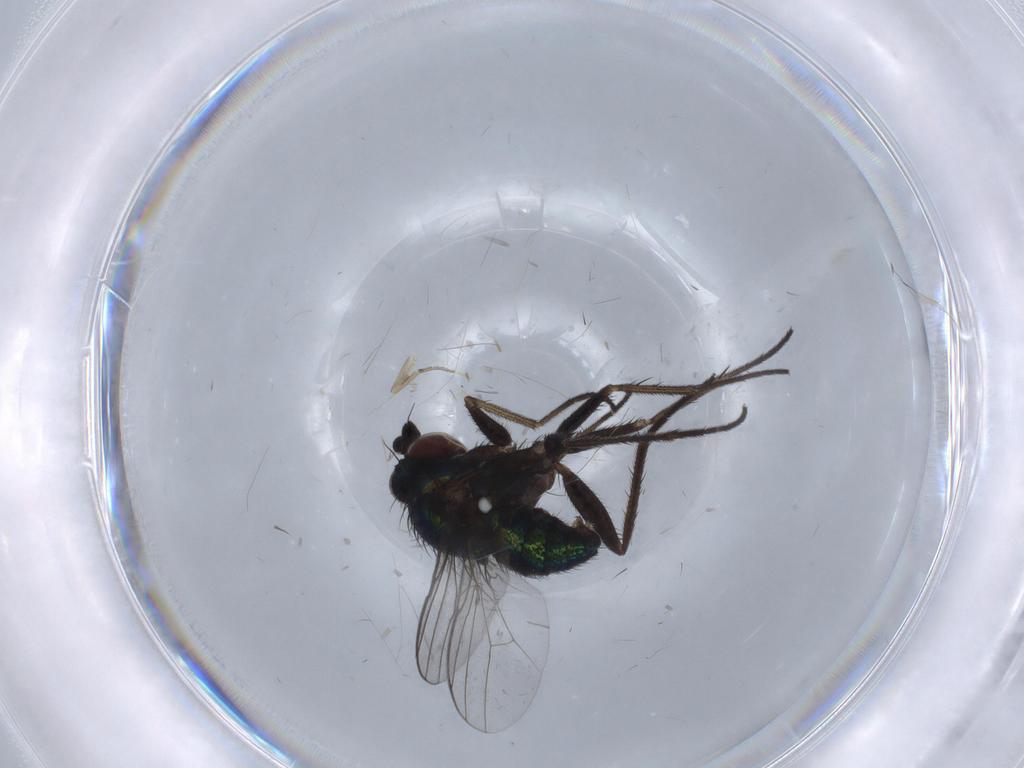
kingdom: Animalia
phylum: Arthropoda
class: Insecta
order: Diptera
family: Dolichopodidae
